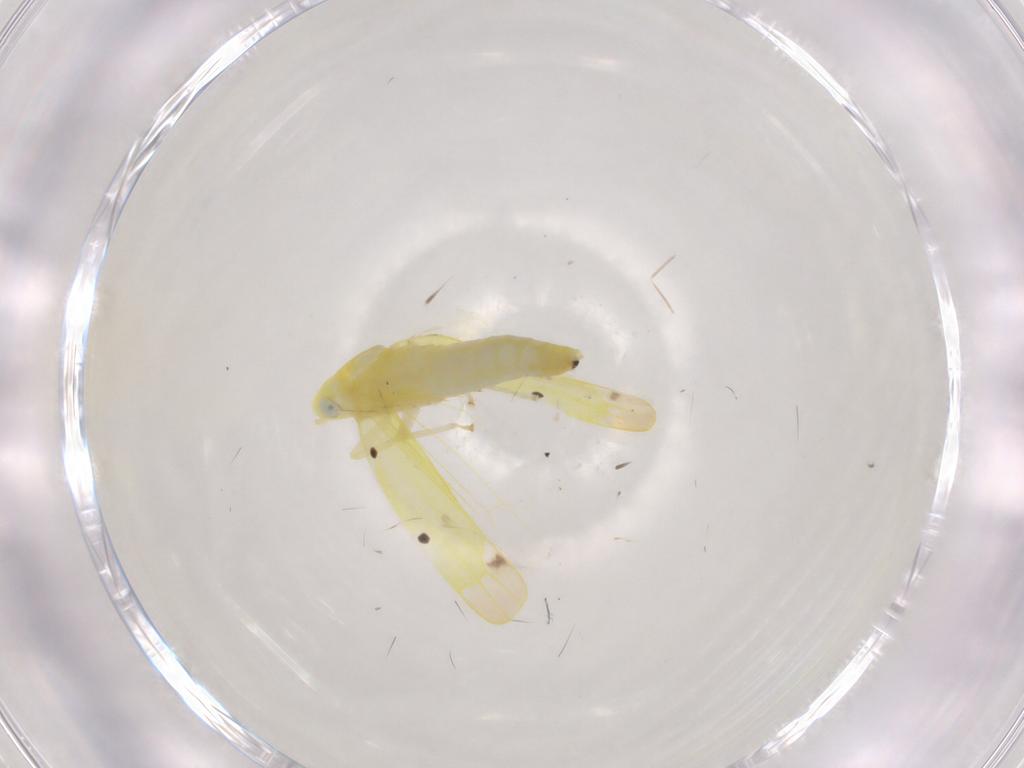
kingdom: Animalia
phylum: Arthropoda
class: Insecta
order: Hemiptera
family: Cicadellidae
